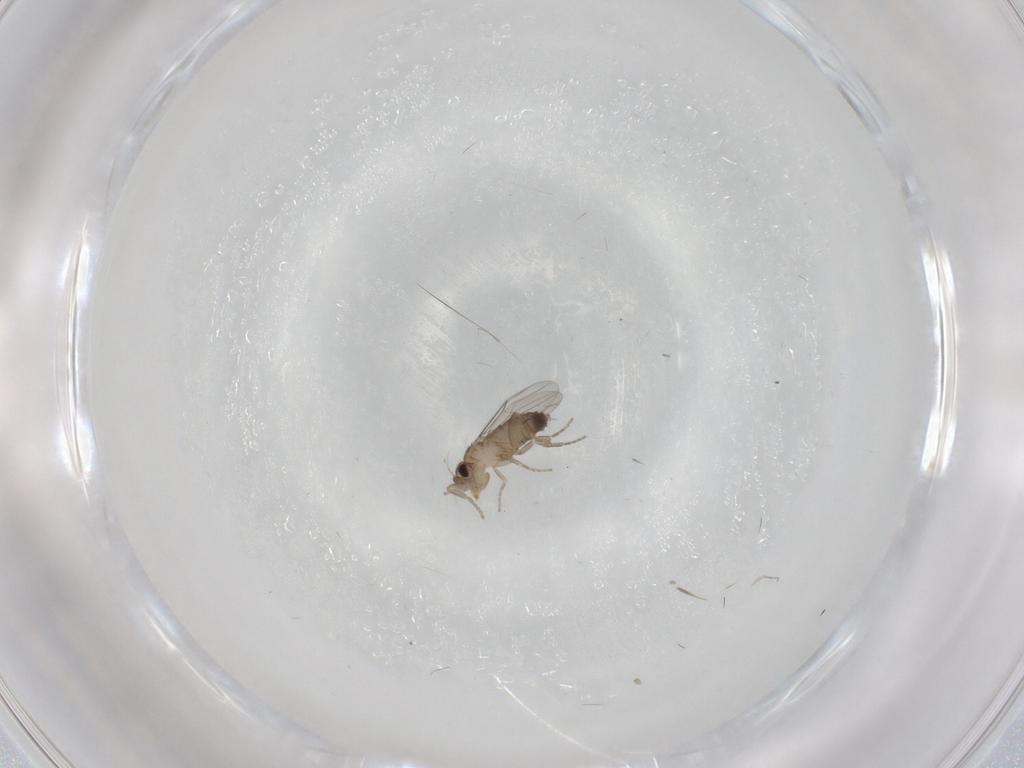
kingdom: Animalia
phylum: Arthropoda
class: Insecta
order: Diptera
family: Phoridae
